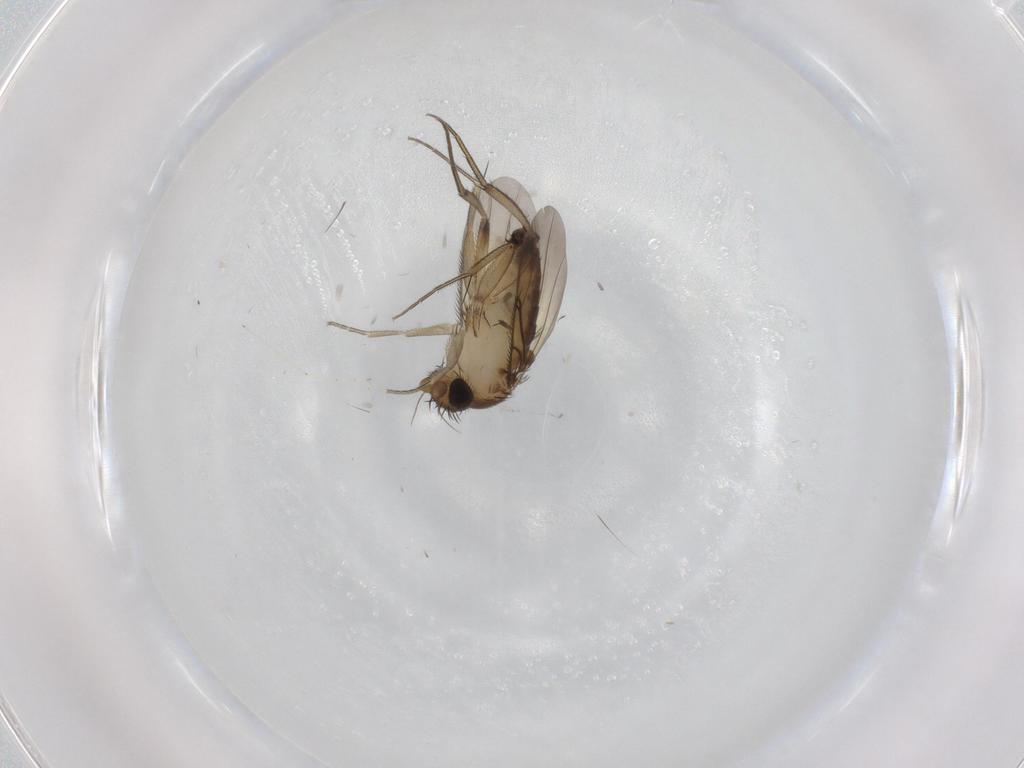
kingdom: Animalia
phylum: Arthropoda
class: Insecta
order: Diptera
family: Phoridae
